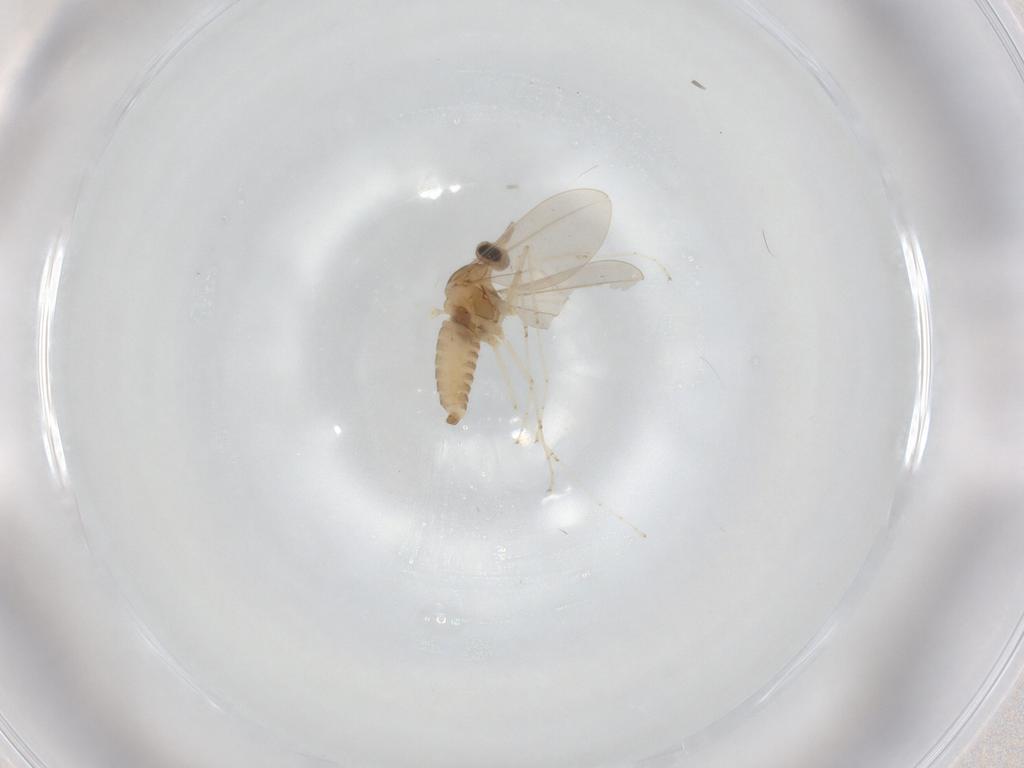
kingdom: Animalia
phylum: Arthropoda
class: Insecta
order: Diptera
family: Cecidomyiidae
